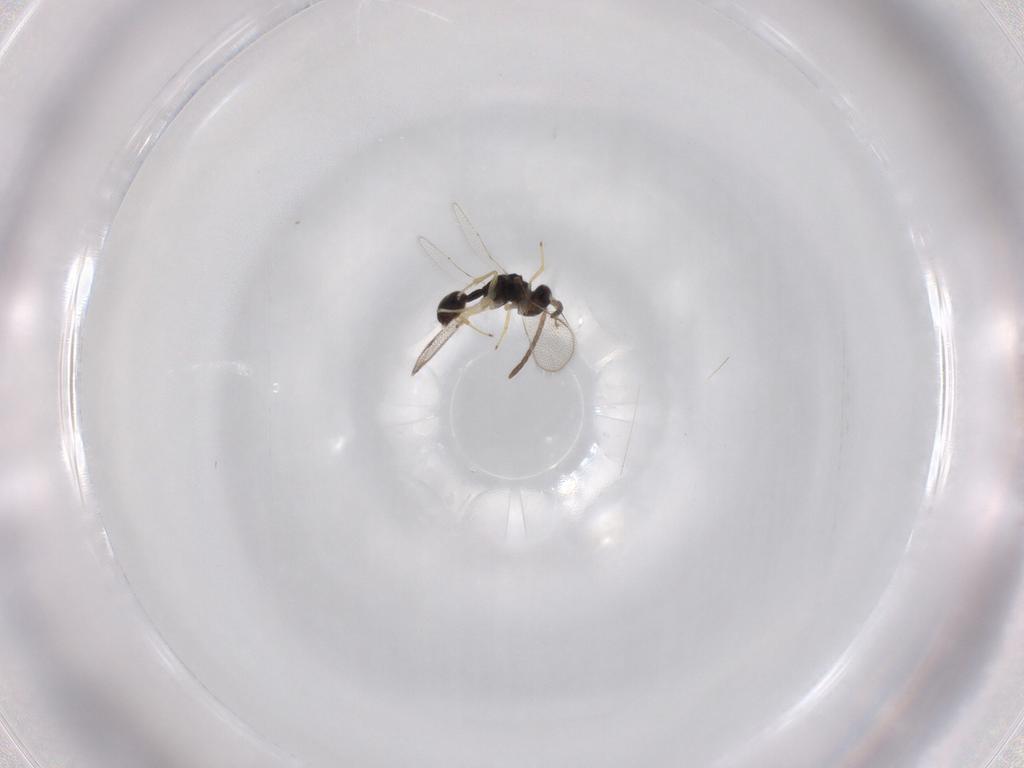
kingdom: Animalia
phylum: Arthropoda
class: Insecta
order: Hymenoptera
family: Diparidae
